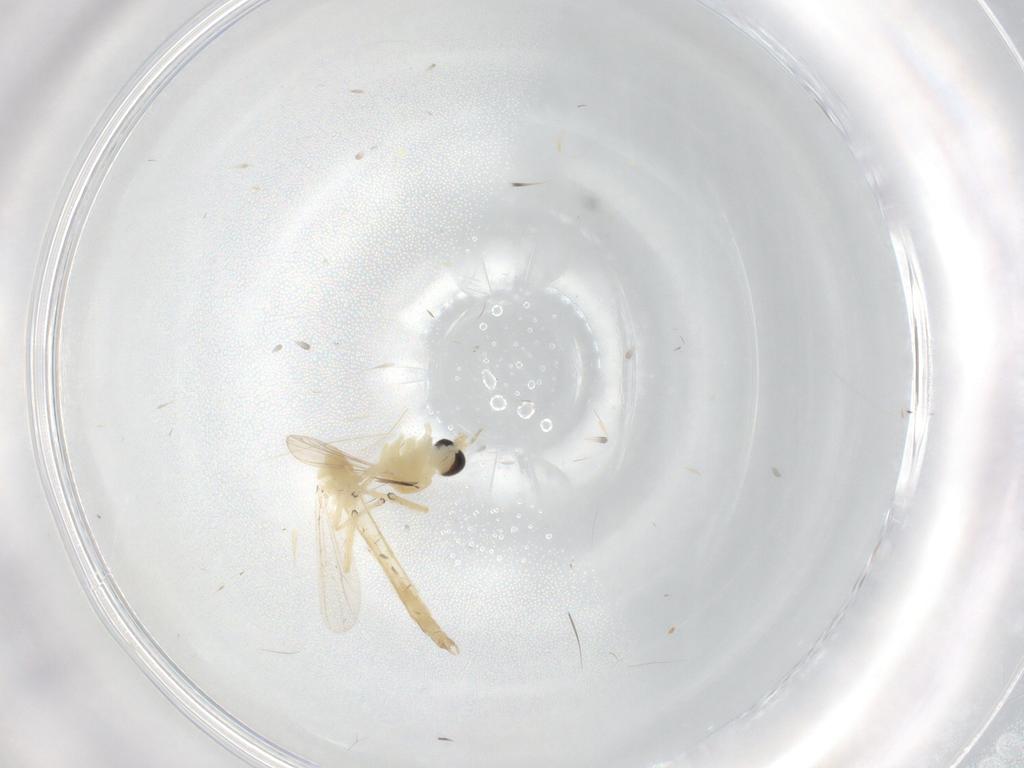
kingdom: Animalia
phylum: Arthropoda
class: Insecta
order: Diptera
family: Chironomidae
